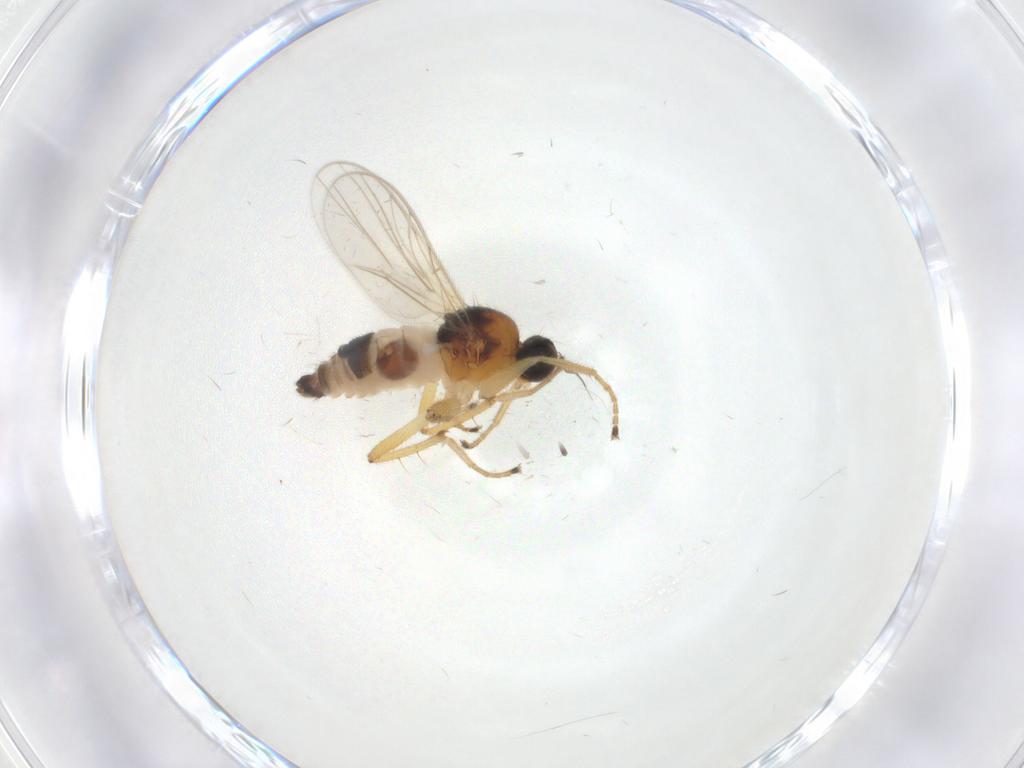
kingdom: Animalia
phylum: Arthropoda
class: Insecta
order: Diptera
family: Hybotidae
